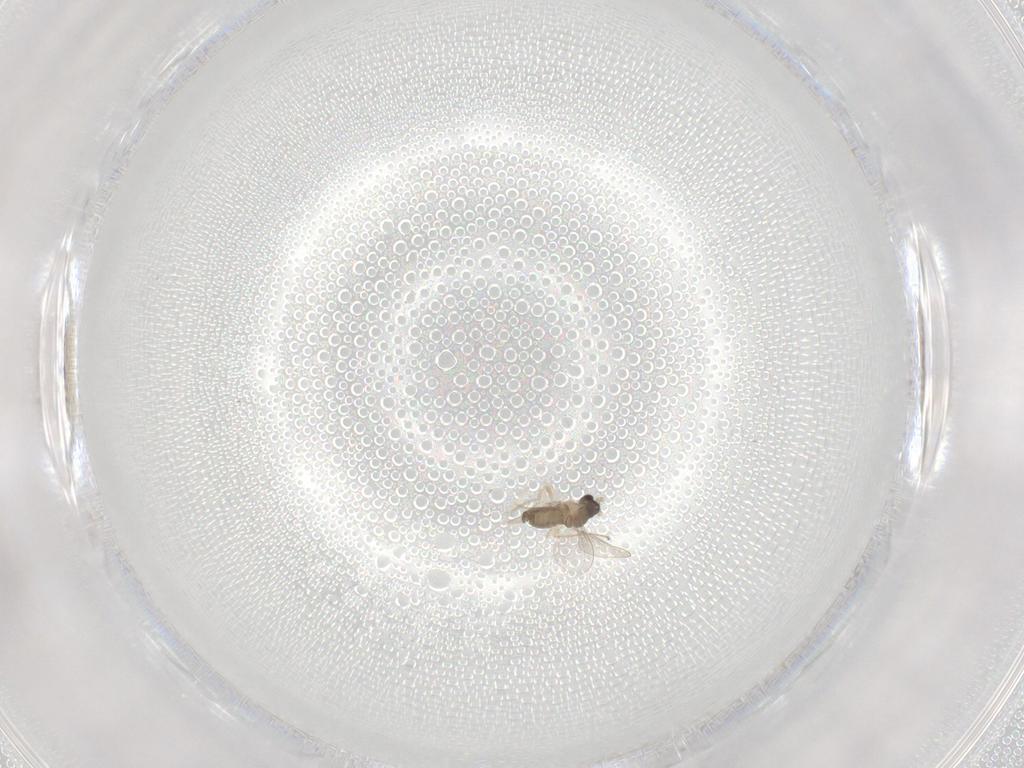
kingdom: Animalia
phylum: Arthropoda
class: Insecta
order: Diptera
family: Cecidomyiidae
